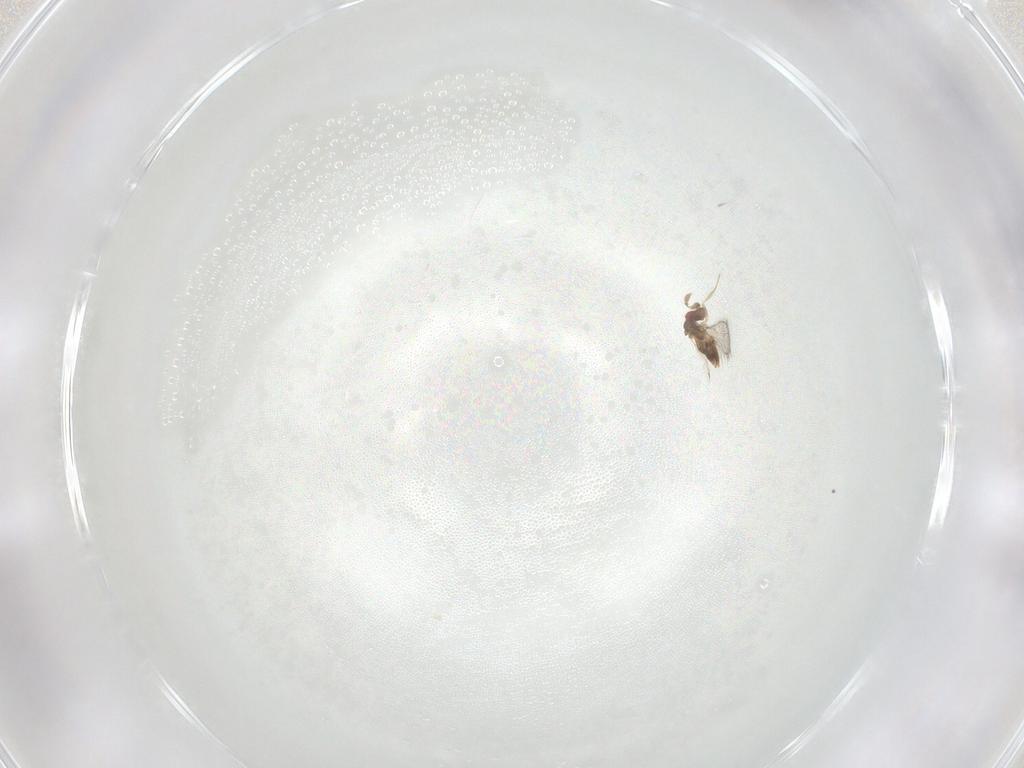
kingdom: Animalia
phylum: Arthropoda
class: Insecta
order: Hymenoptera
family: Trichogrammatidae
